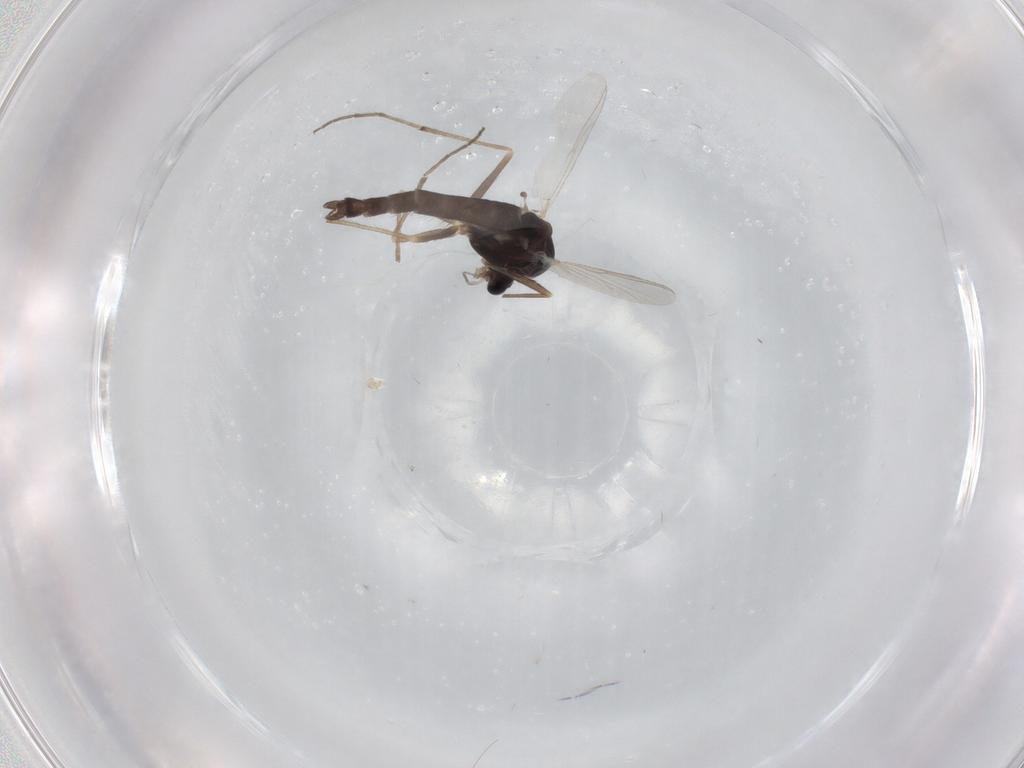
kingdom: Animalia
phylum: Arthropoda
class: Insecta
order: Diptera
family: Chironomidae
